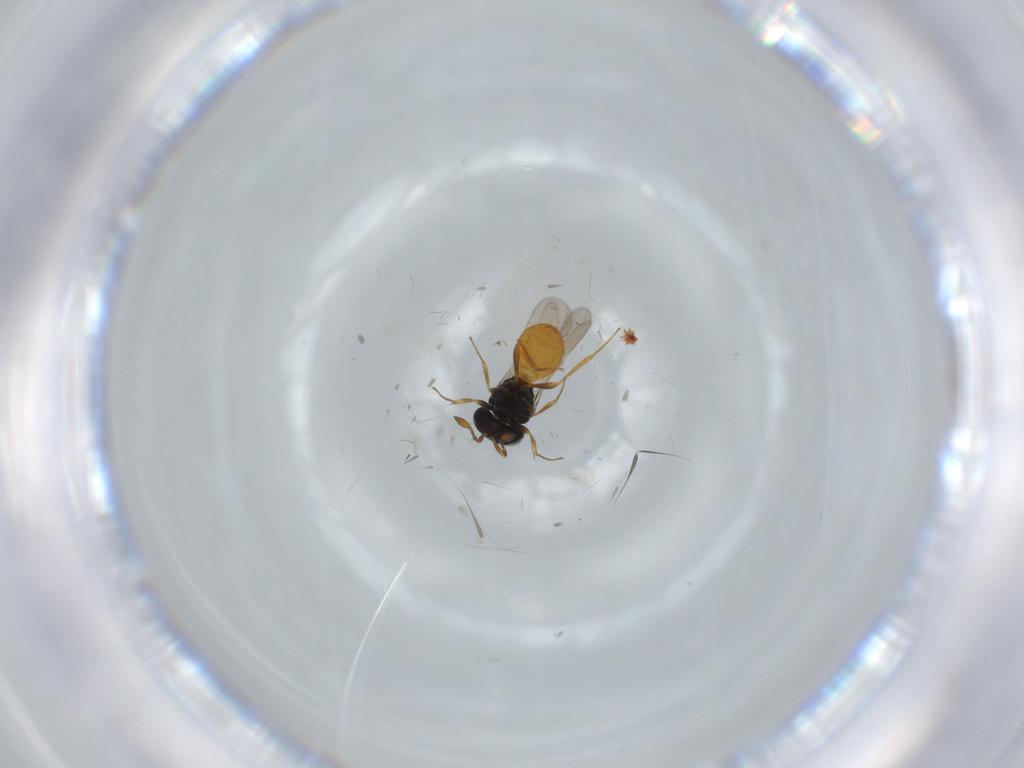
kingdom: Animalia
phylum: Arthropoda
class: Insecta
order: Hymenoptera
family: Scelionidae
